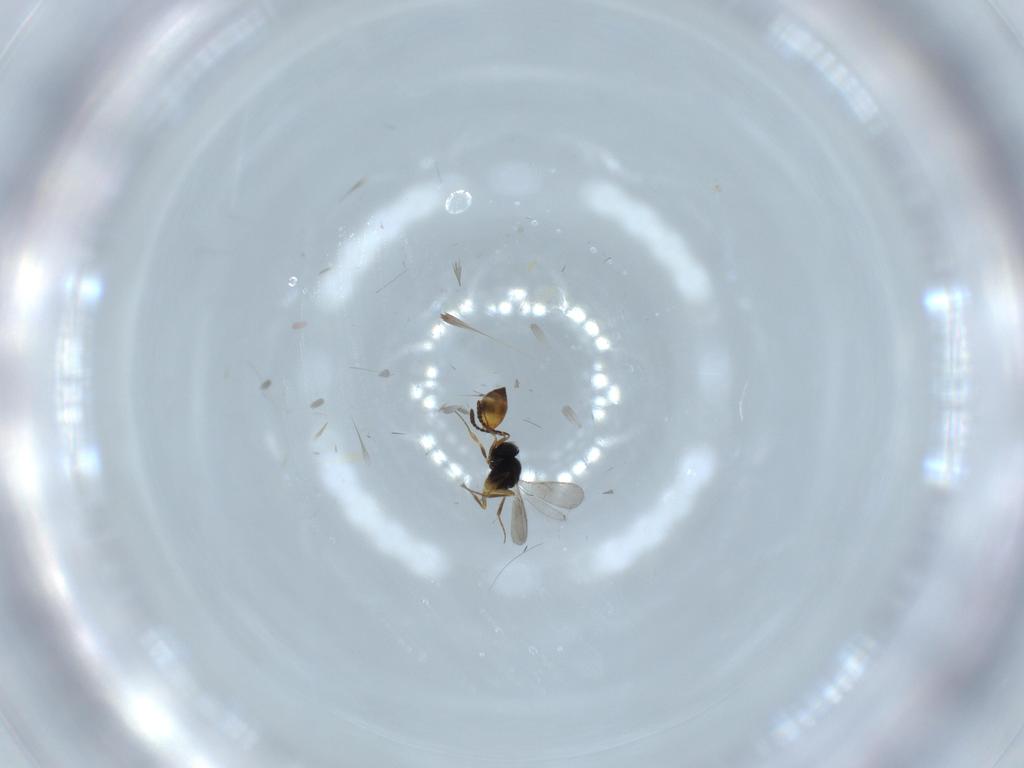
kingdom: Animalia
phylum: Arthropoda
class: Insecta
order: Hymenoptera
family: Scelionidae
